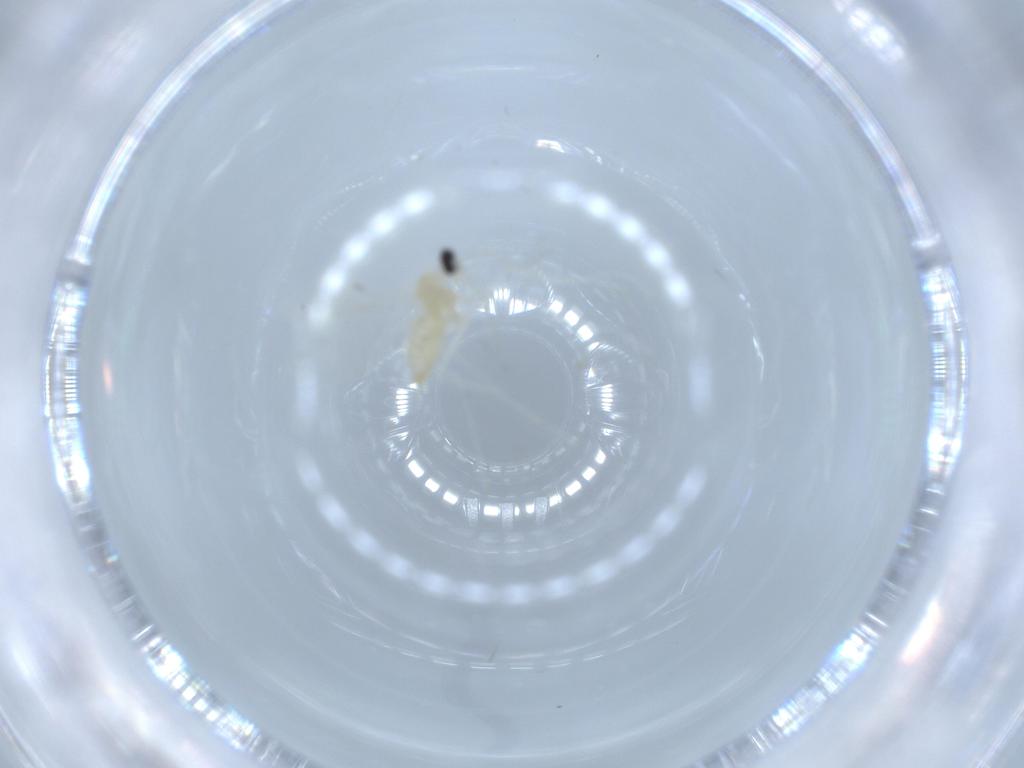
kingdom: Animalia
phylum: Arthropoda
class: Insecta
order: Diptera
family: Cecidomyiidae
